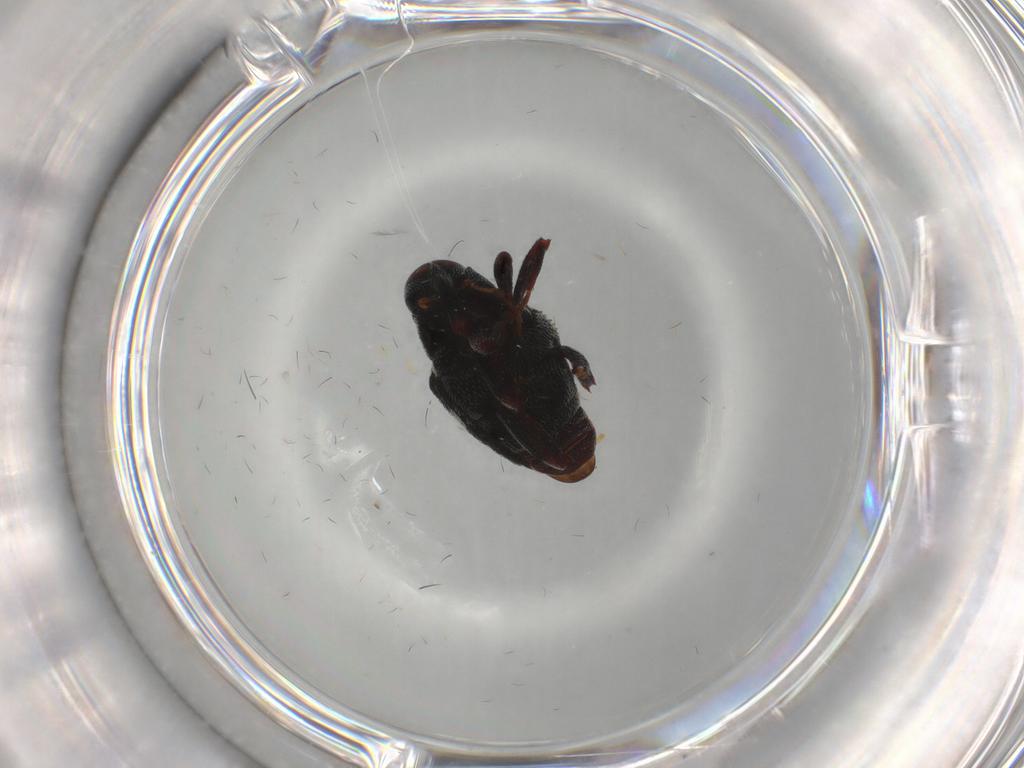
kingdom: Animalia
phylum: Arthropoda
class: Insecta
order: Coleoptera
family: Curculionidae
